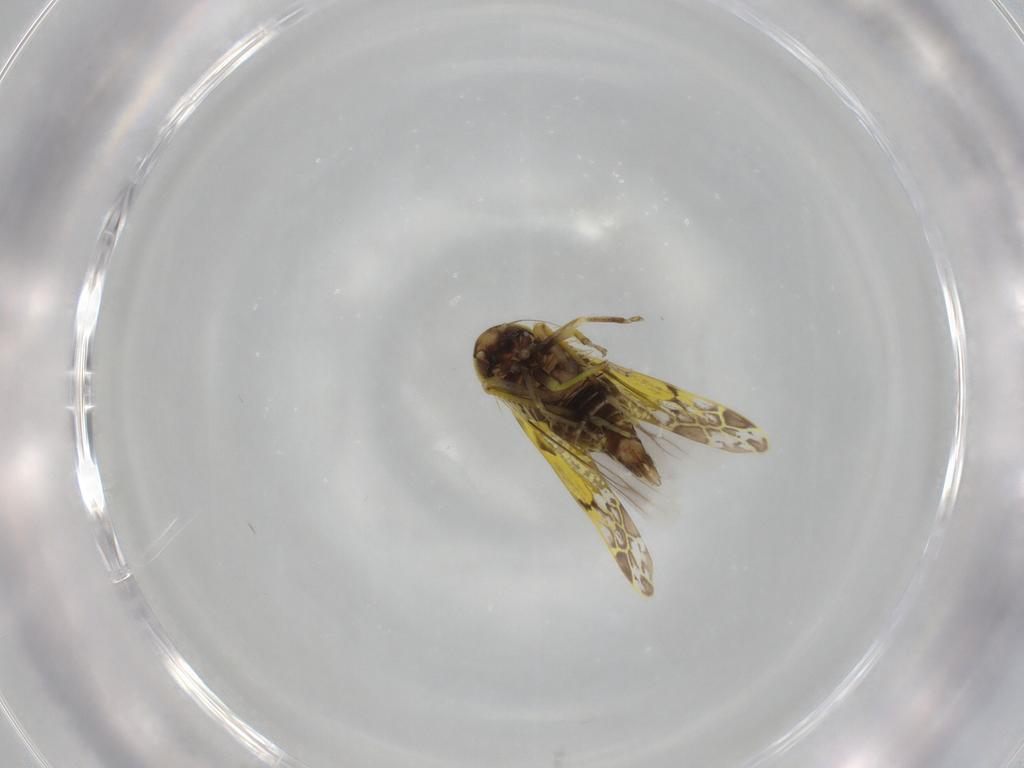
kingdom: Animalia
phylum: Arthropoda
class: Insecta
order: Hemiptera
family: Cicadellidae
